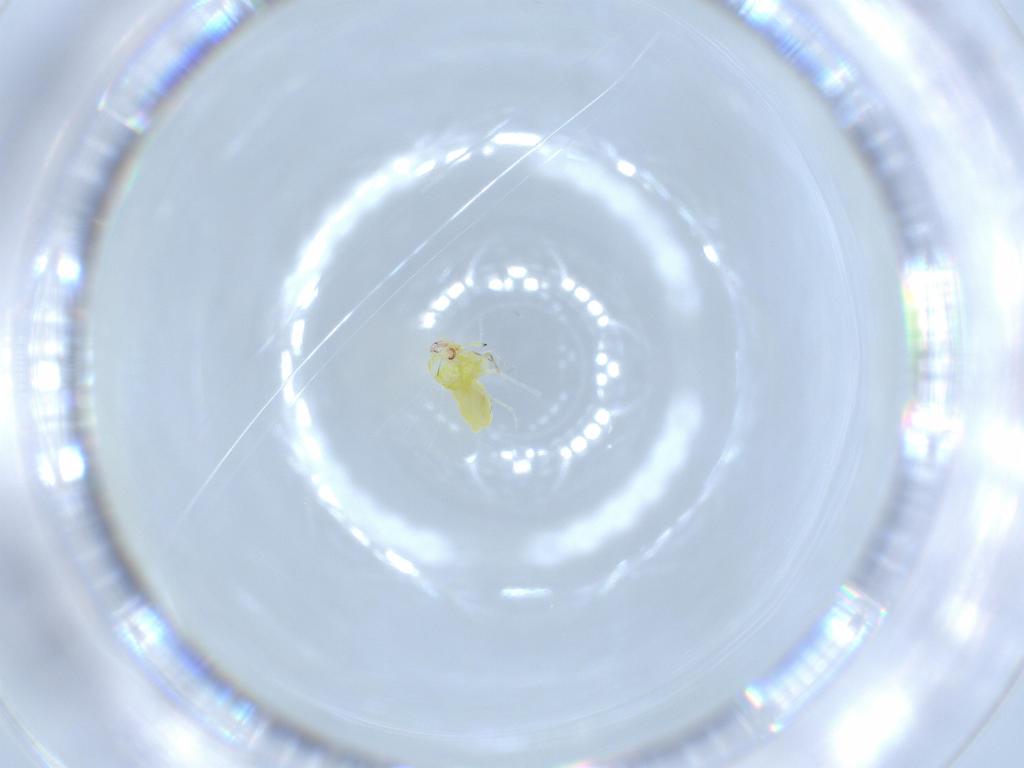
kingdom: Animalia
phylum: Arthropoda
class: Insecta
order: Hemiptera
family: Aleyrodidae
